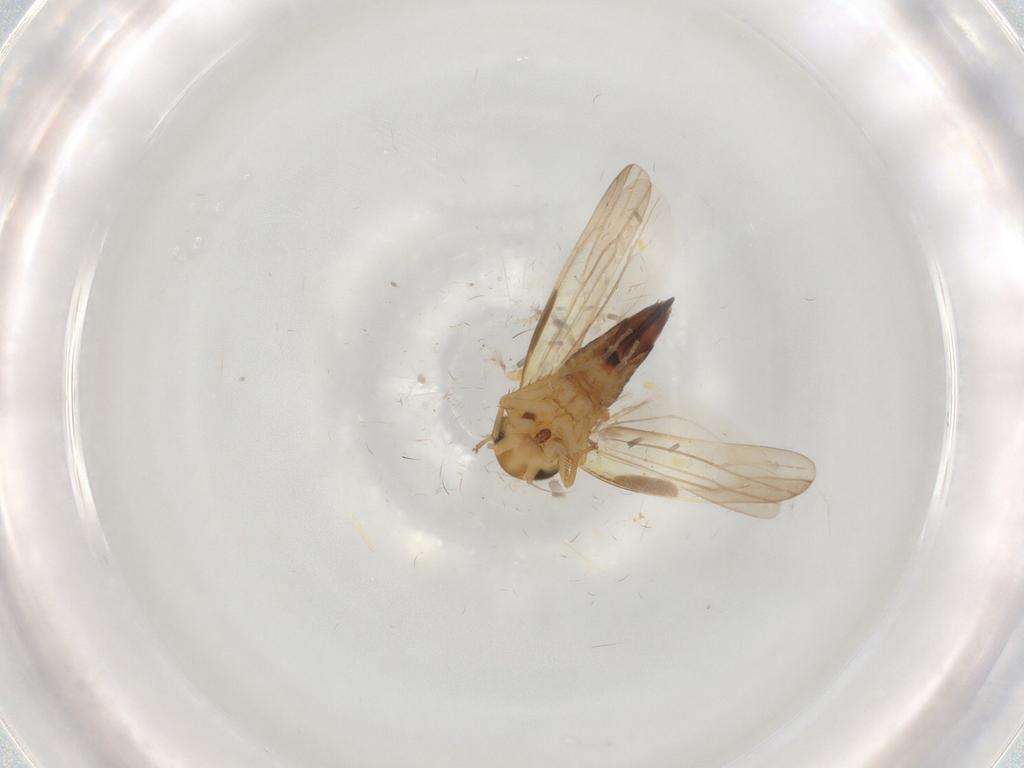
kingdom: Animalia
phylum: Arthropoda
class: Insecta
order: Hemiptera
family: Aphididae
